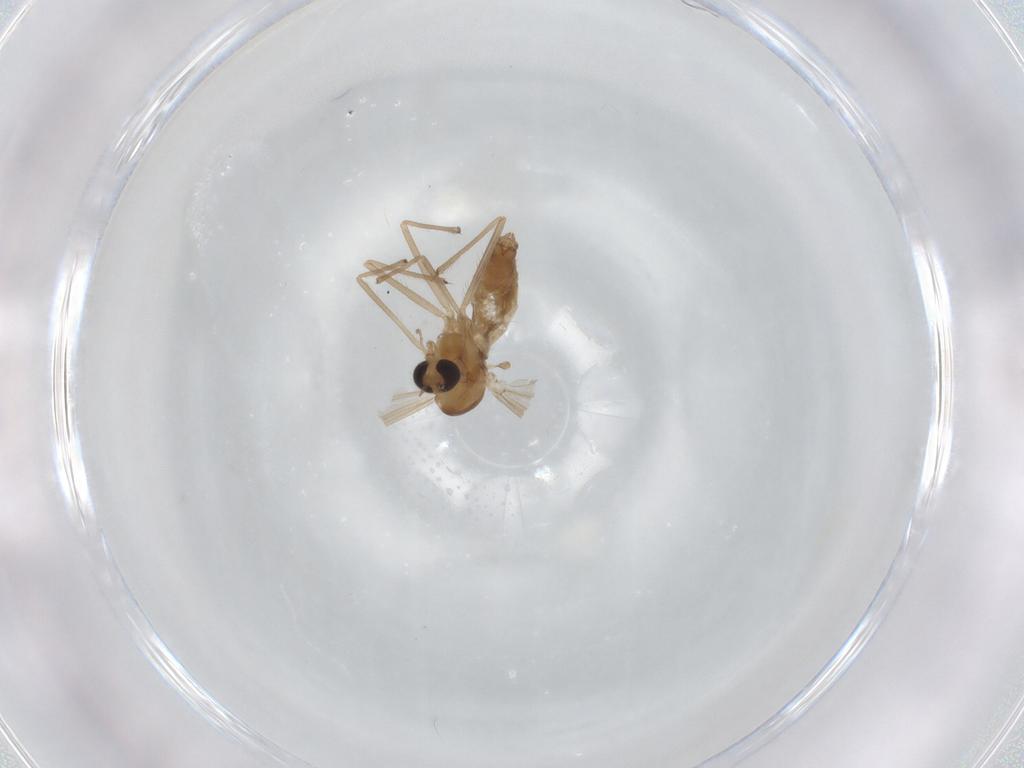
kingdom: Animalia
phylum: Arthropoda
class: Insecta
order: Diptera
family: Chironomidae
